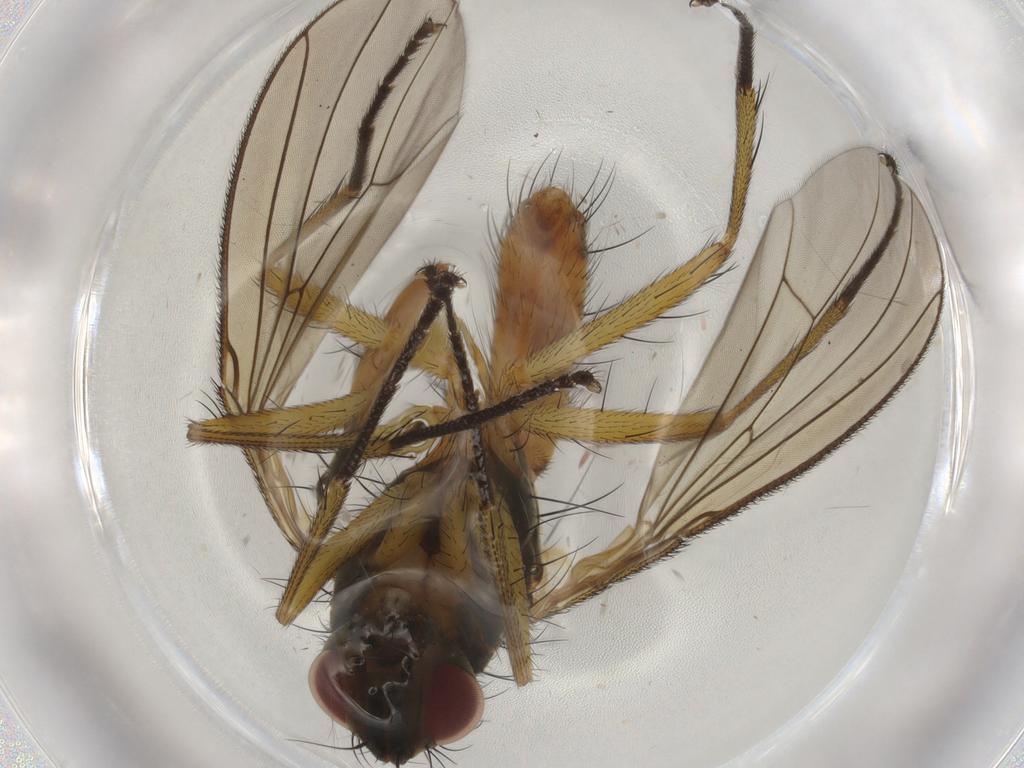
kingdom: Animalia
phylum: Arthropoda
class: Insecta
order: Diptera
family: Muscidae
